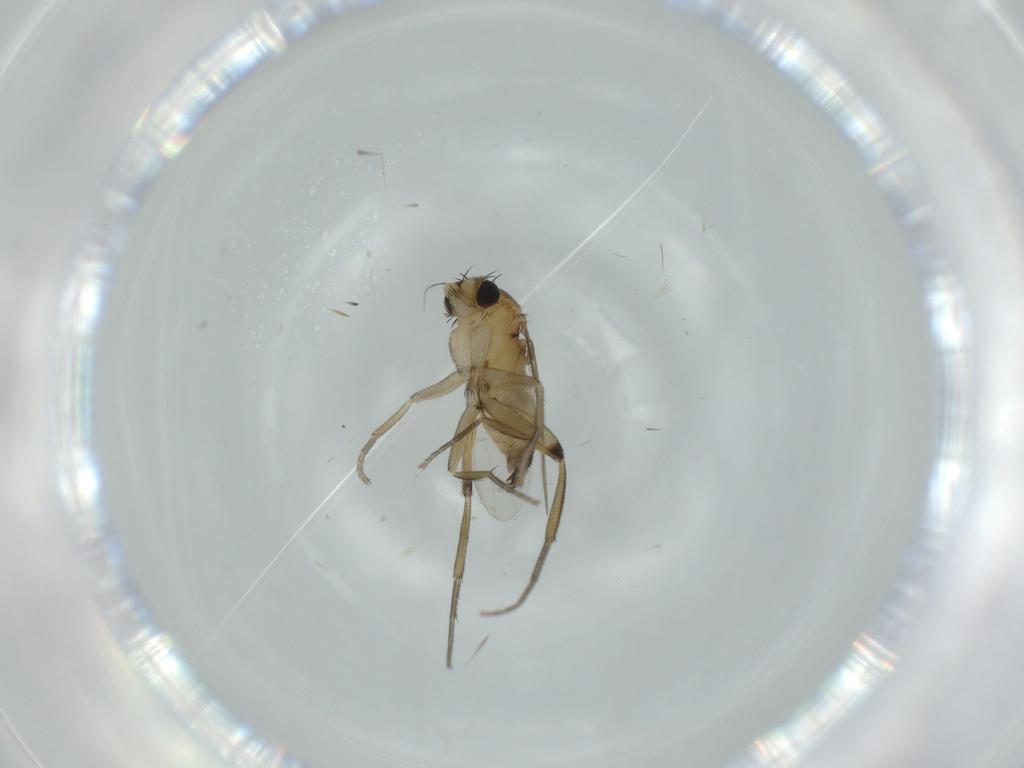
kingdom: Animalia
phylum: Arthropoda
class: Insecta
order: Diptera
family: Phoridae
